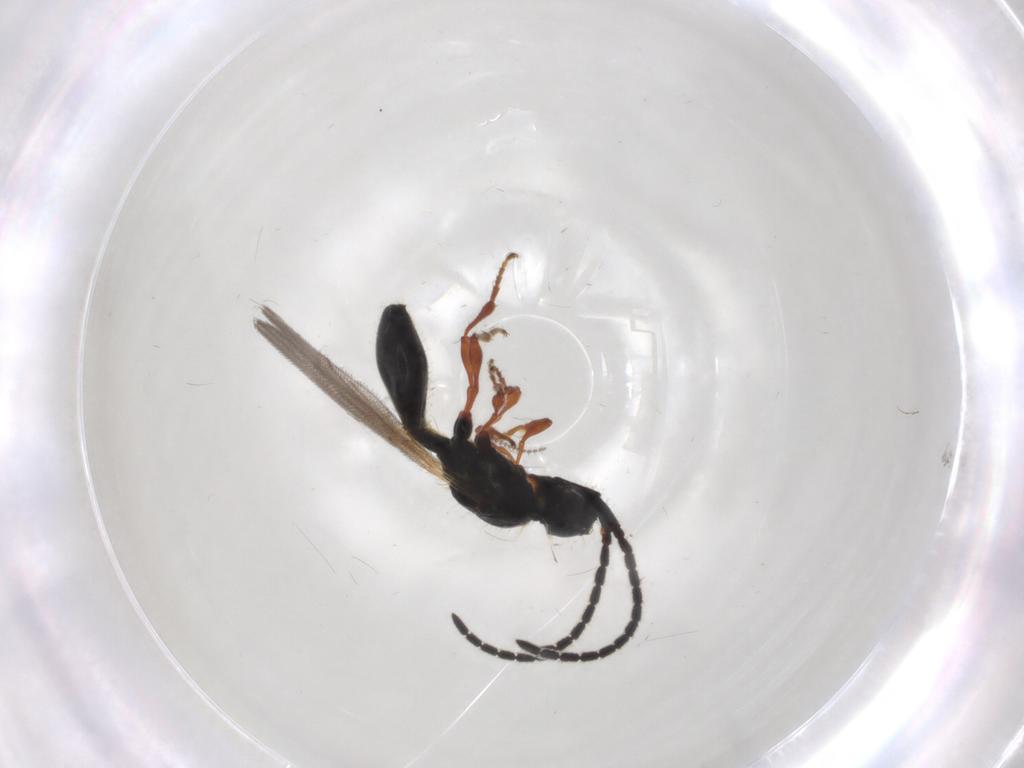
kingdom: Animalia
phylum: Arthropoda
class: Insecta
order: Hymenoptera
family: Diapriidae
